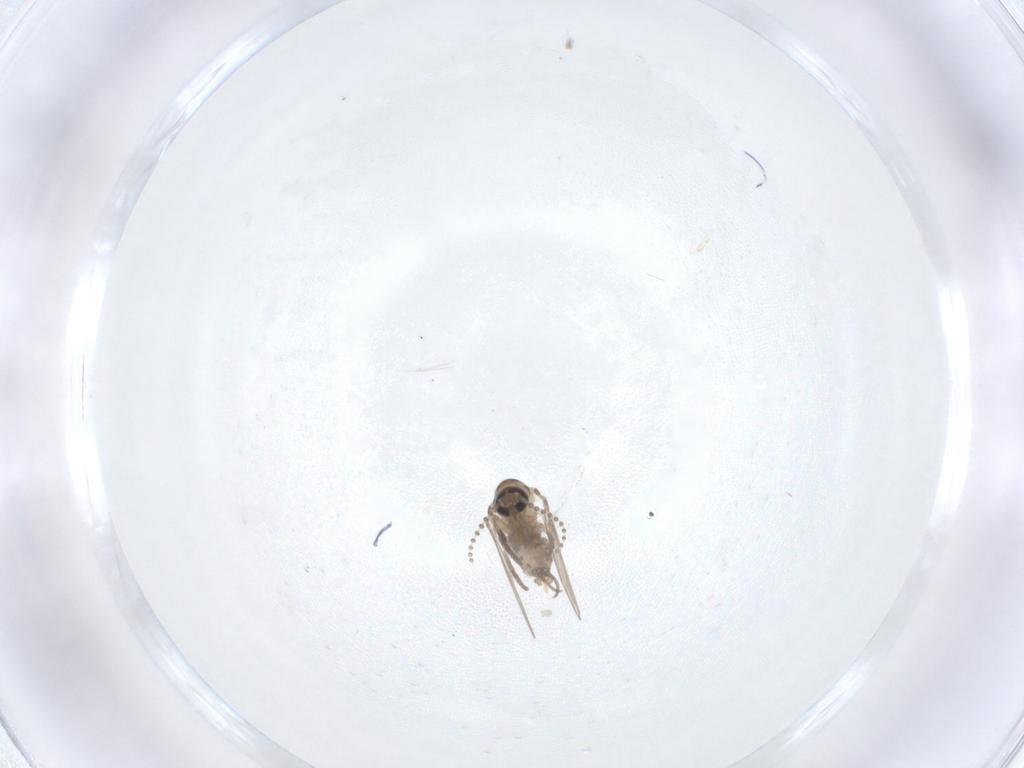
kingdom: Animalia
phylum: Arthropoda
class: Insecta
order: Diptera
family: Psychodidae
